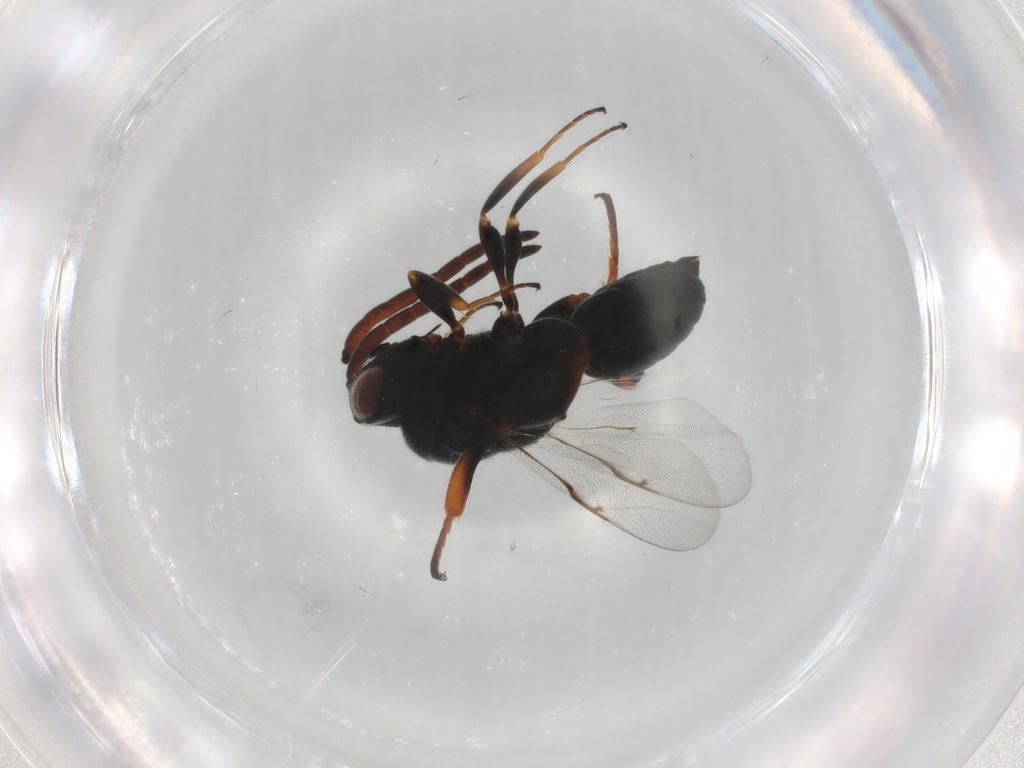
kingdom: Animalia
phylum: Arthropoda
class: Insecta
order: Hymenoptera
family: Chalcididae
